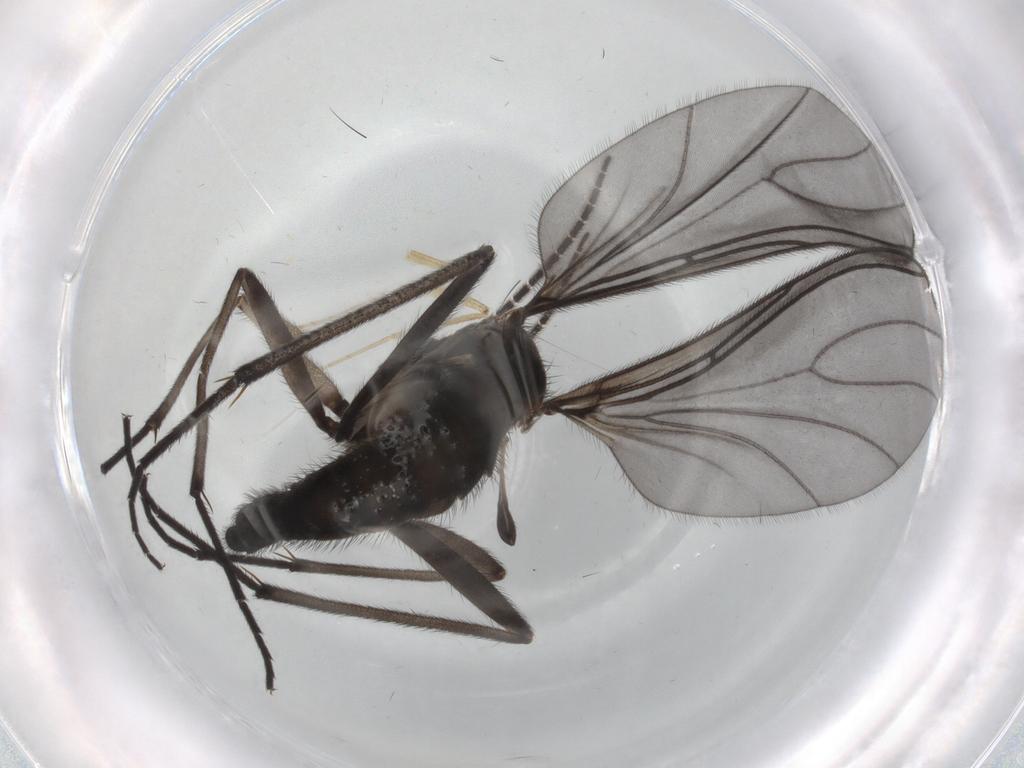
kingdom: Animalia
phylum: Arthropoda
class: Insecta
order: Diptera
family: Sciaridae
